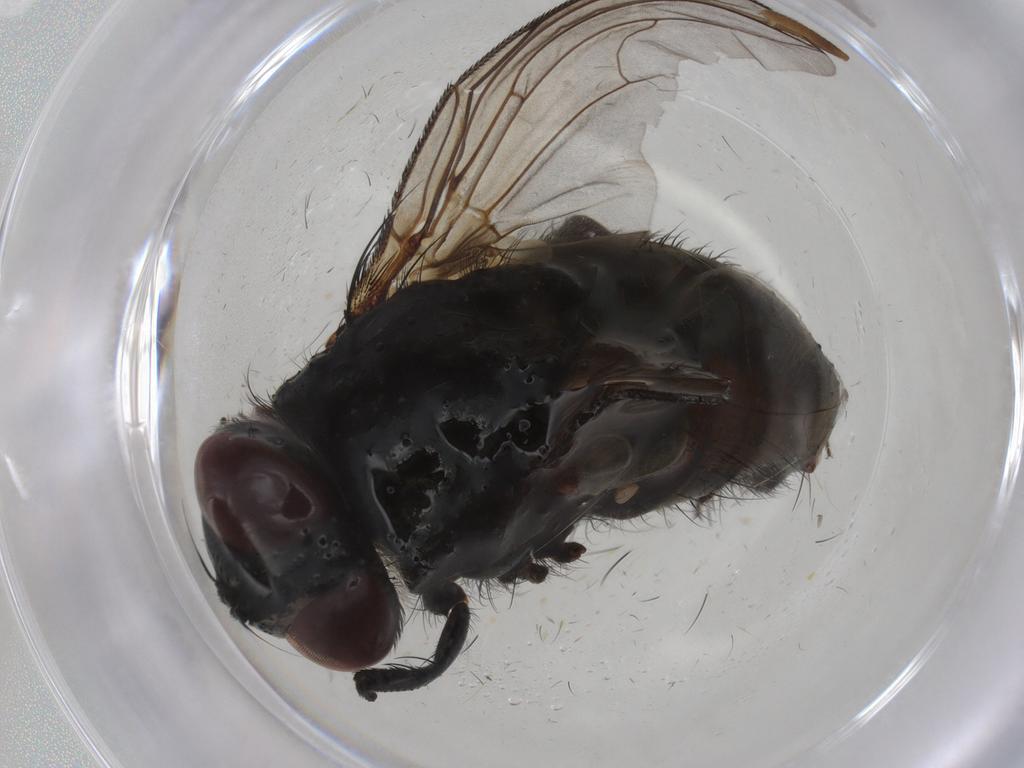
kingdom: Animalia
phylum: Arthropoda
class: Insecta
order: Diptera
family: Tachinidae
